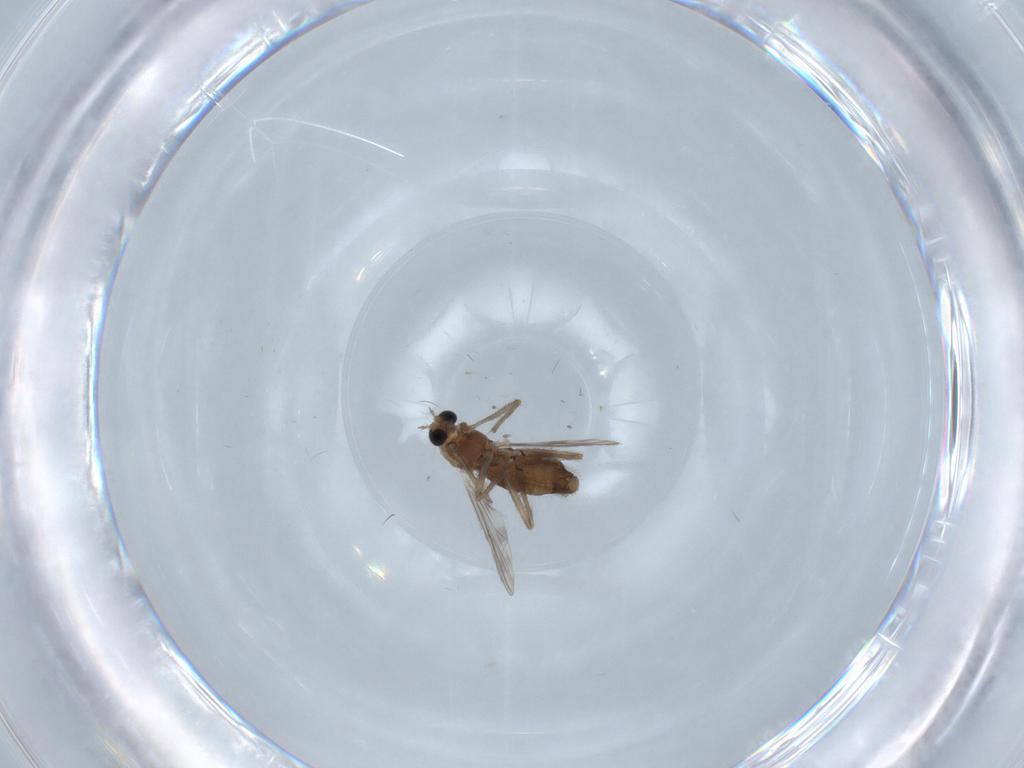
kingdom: Animalia
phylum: Arthropoda
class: Insecta
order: Diptera
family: Chironomidae
